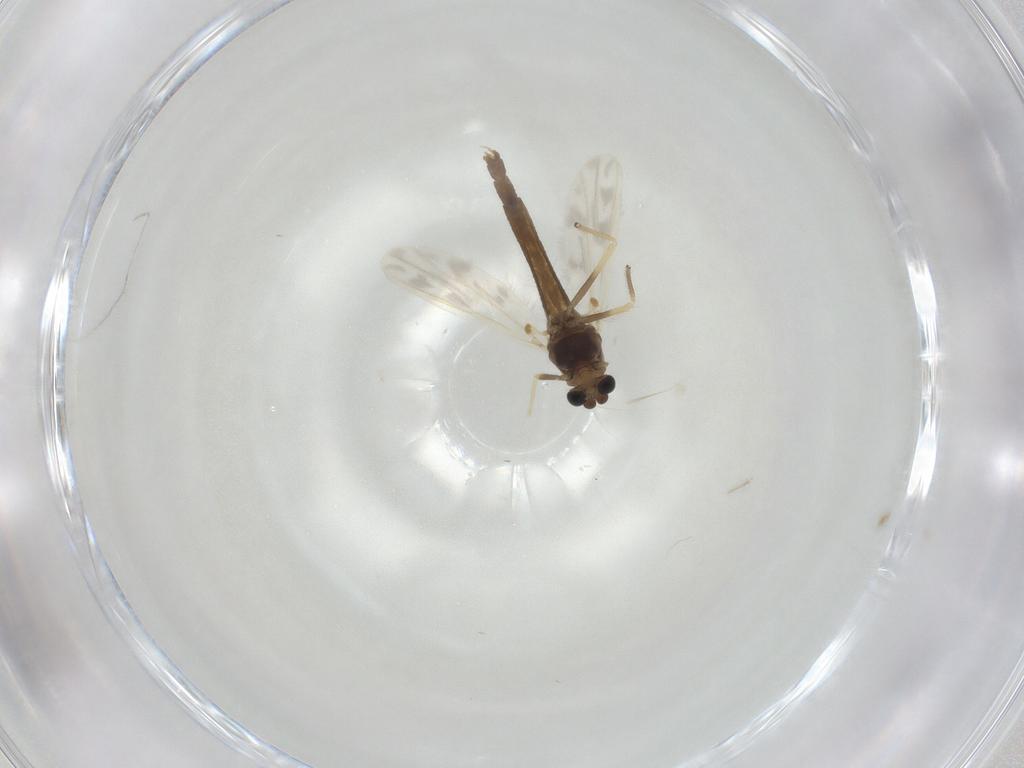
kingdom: Animalia
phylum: Arthropoda
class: Insecta
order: Diptera
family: Chironomidae
